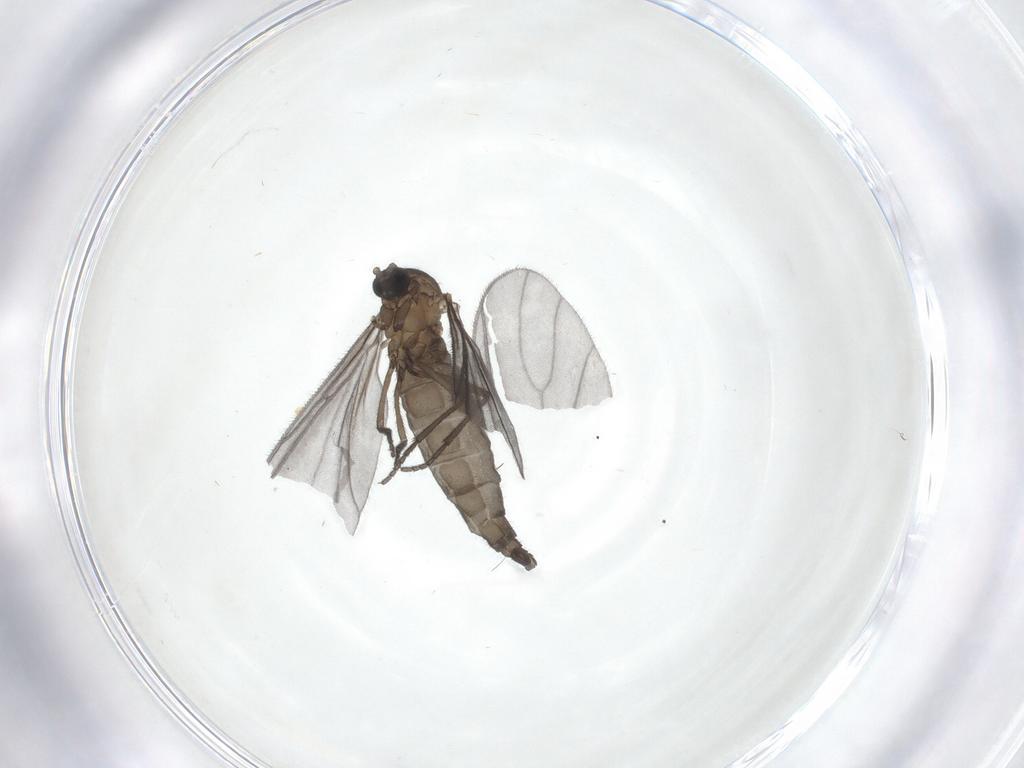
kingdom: Animalia
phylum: Arthropoda
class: Insecta
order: Diptera
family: Sciaridae
